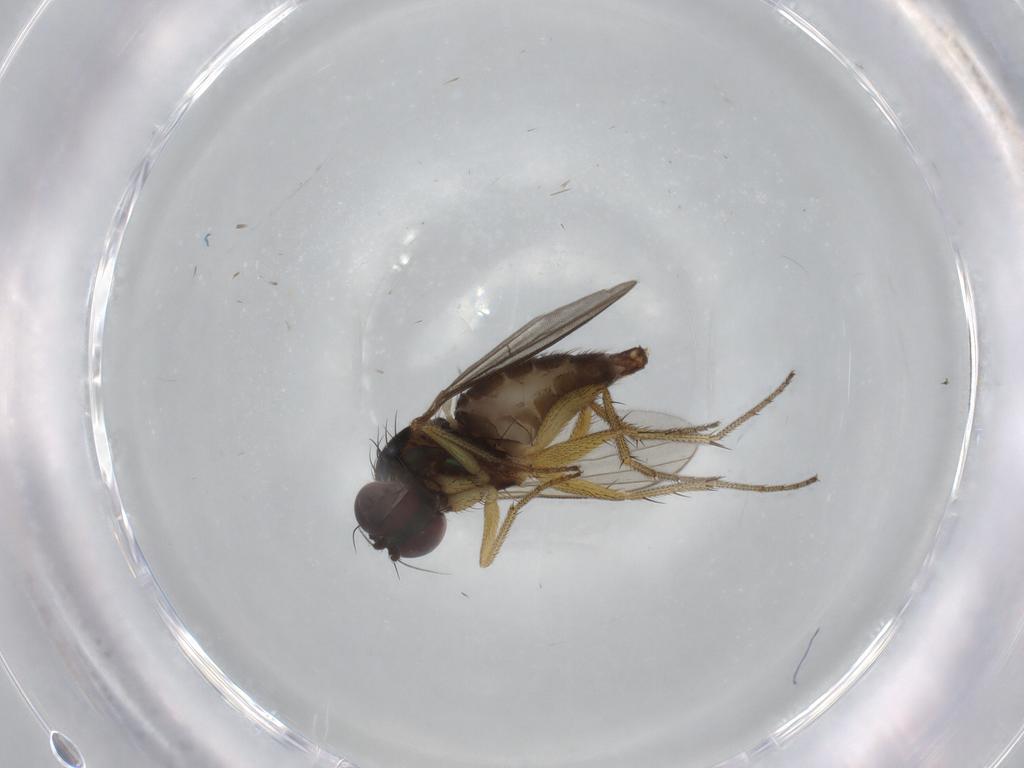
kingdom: Animalia
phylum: Arthropoda
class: Insecta
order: Diptera
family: Dolichopodidae
